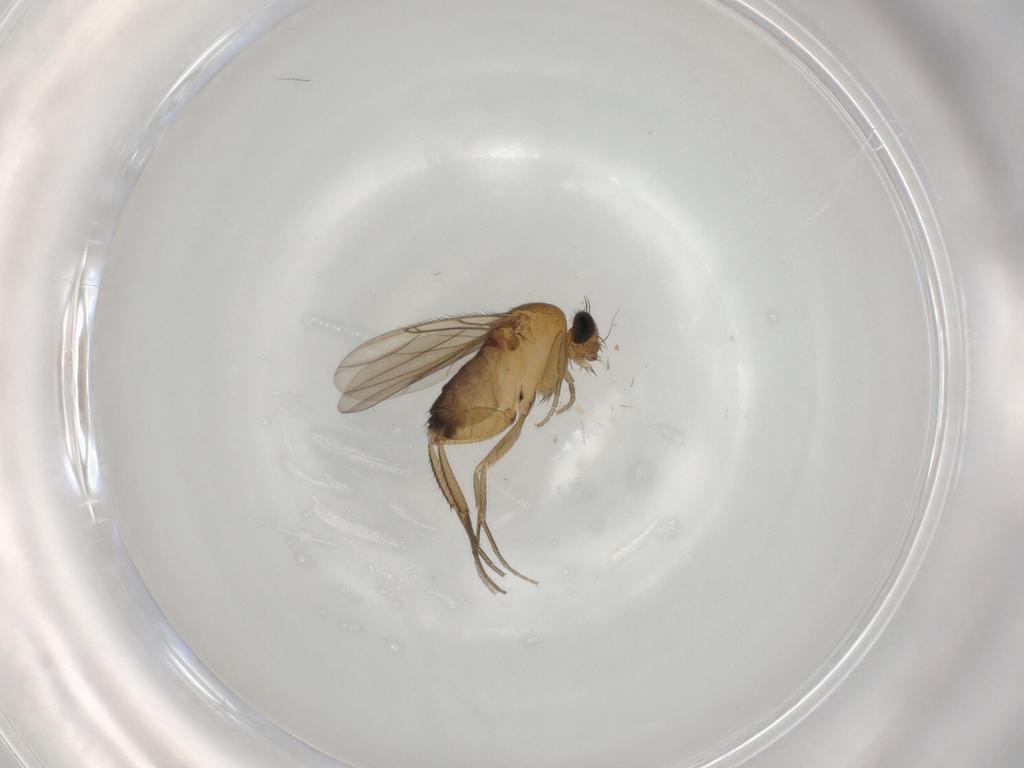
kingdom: Animalia
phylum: Arthropoda
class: Insecta
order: Diptera
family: Phoridae
